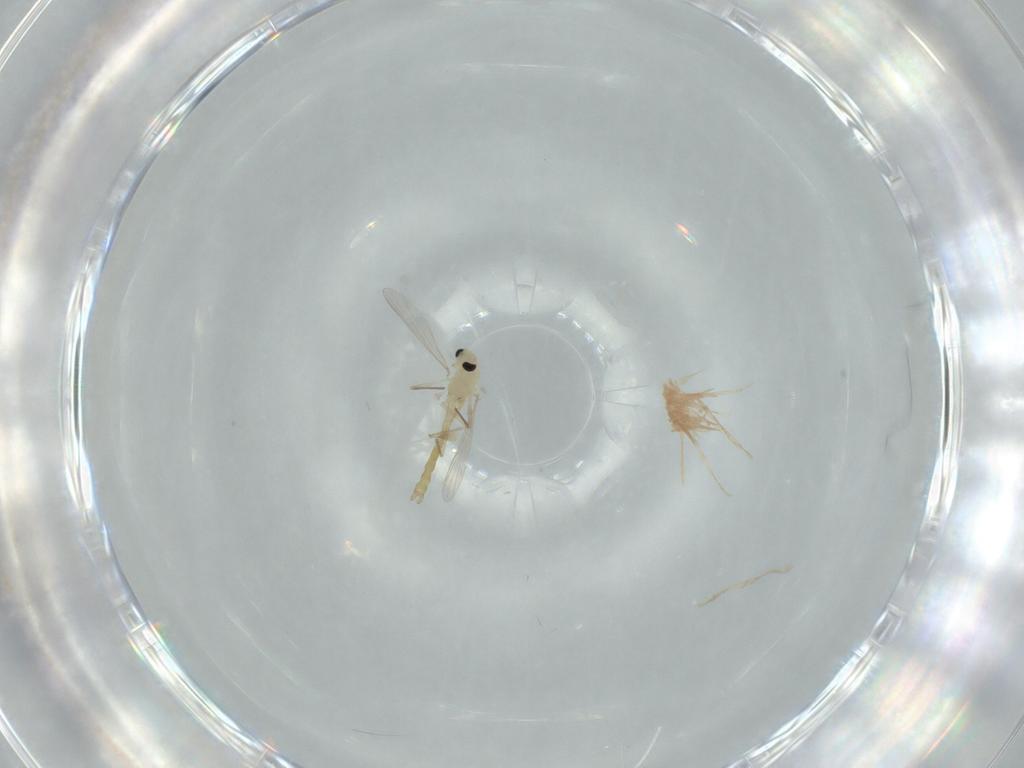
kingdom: Animalia
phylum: Arthropoda
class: Insecta
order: Diptera
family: Chironomidae
